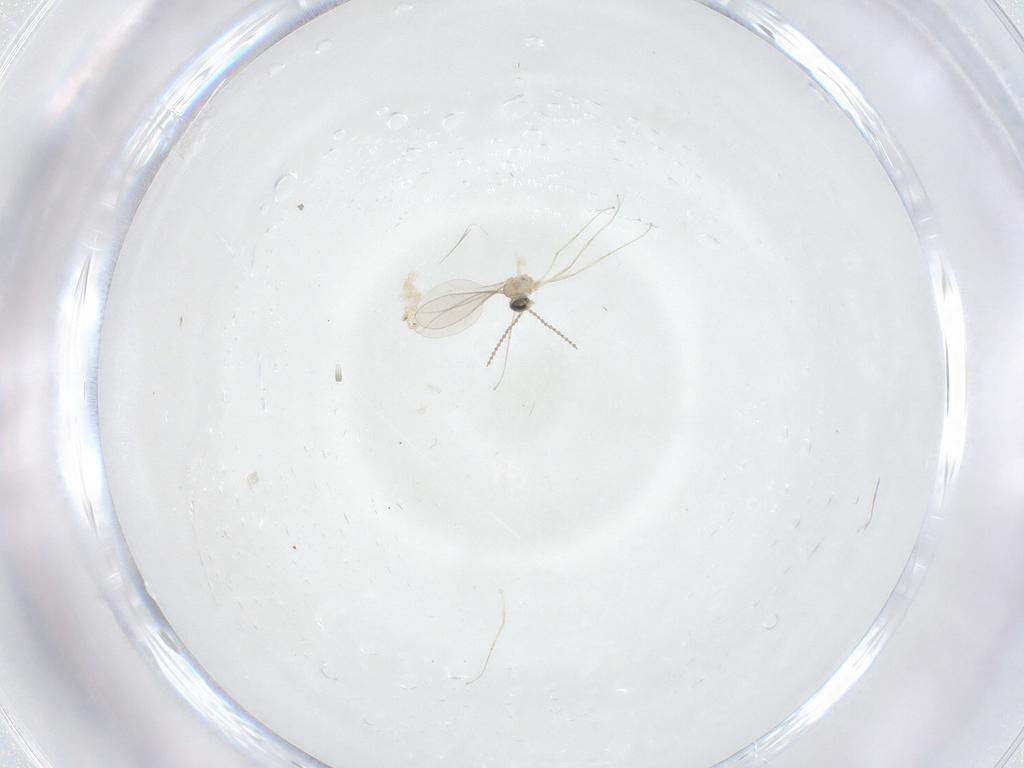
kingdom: Animalia
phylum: Arthropoda
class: Insecta
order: Diptera
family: Cecidomyiidae
